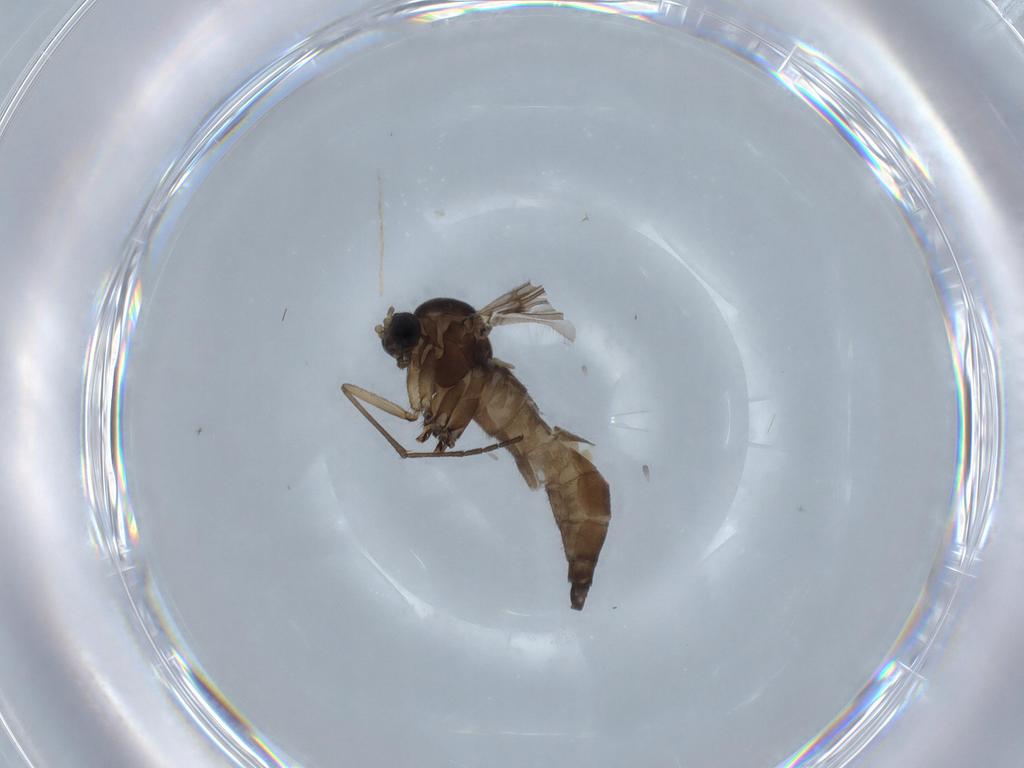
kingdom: Animalia
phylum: Arthropoda
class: Insecta
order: Diptera
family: Sciaridae
